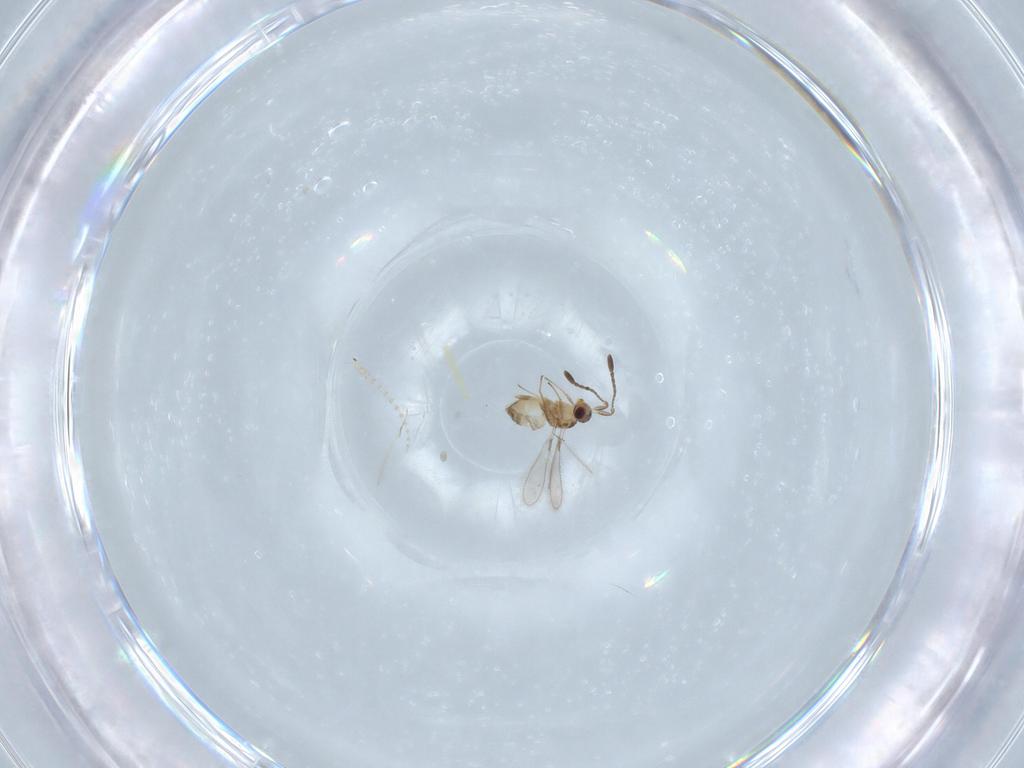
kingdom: Animalia
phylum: Arthropoda
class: Insecta
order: Hymenoptera
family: Mymaridae
